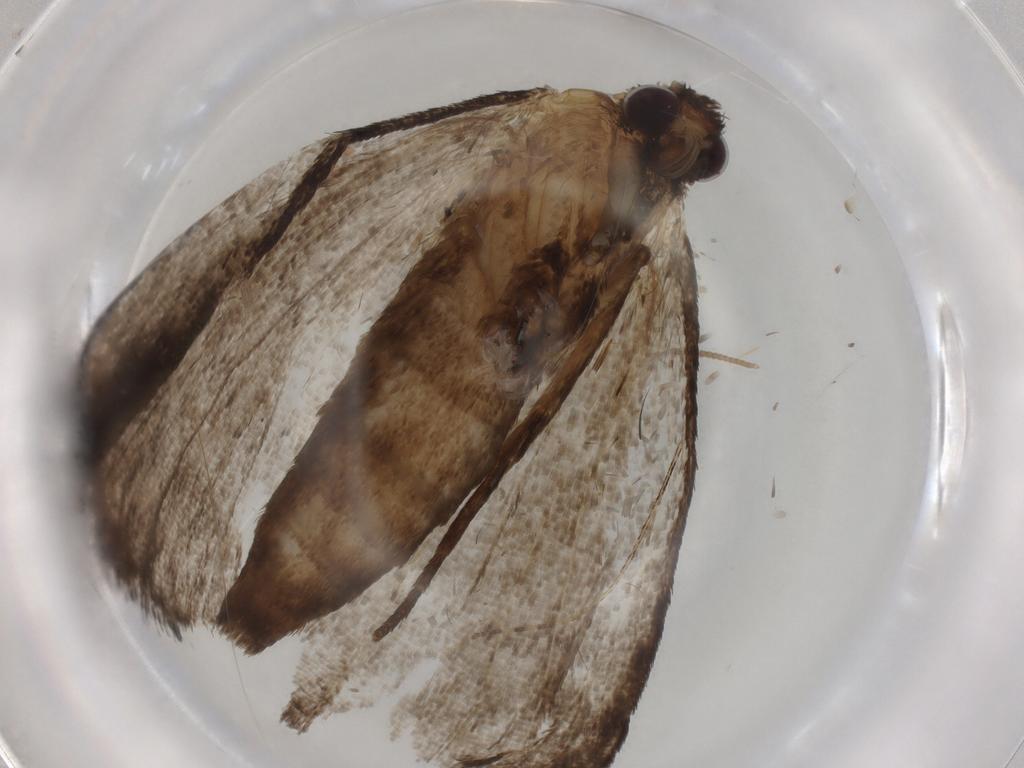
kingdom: Animalia
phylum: Arthropoda
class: Insecta
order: Lepidoptera
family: Erebidae
